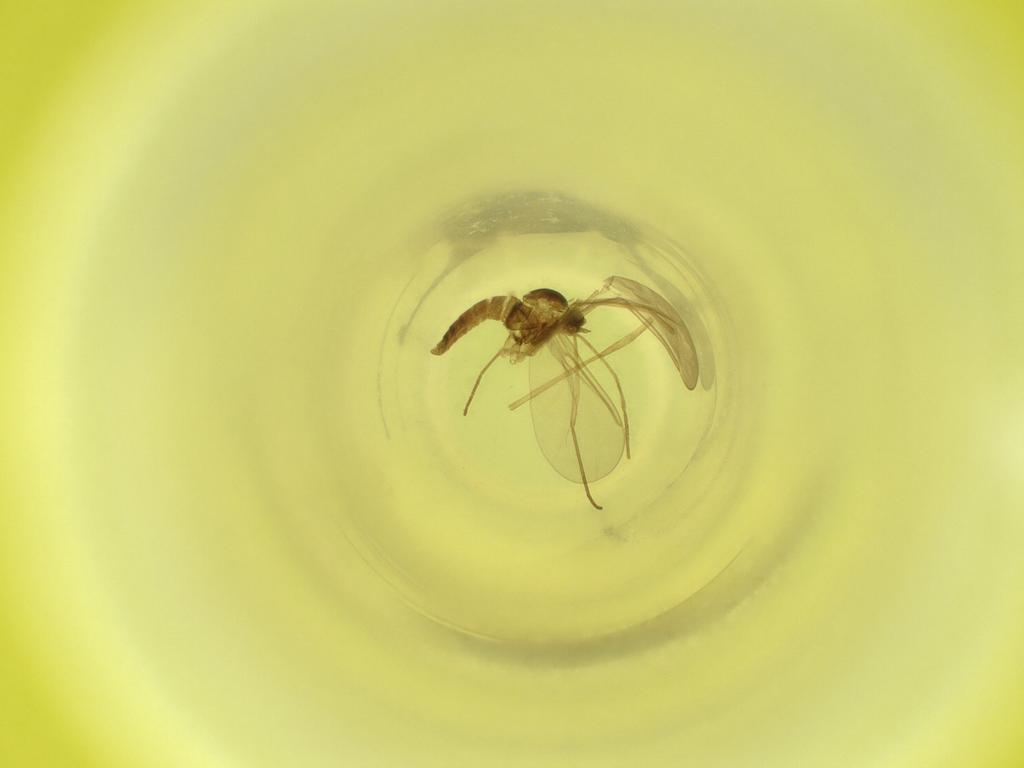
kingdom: Animalia
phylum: Arthropoda
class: Insecta
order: Diptera
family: Cecidomyiidae
